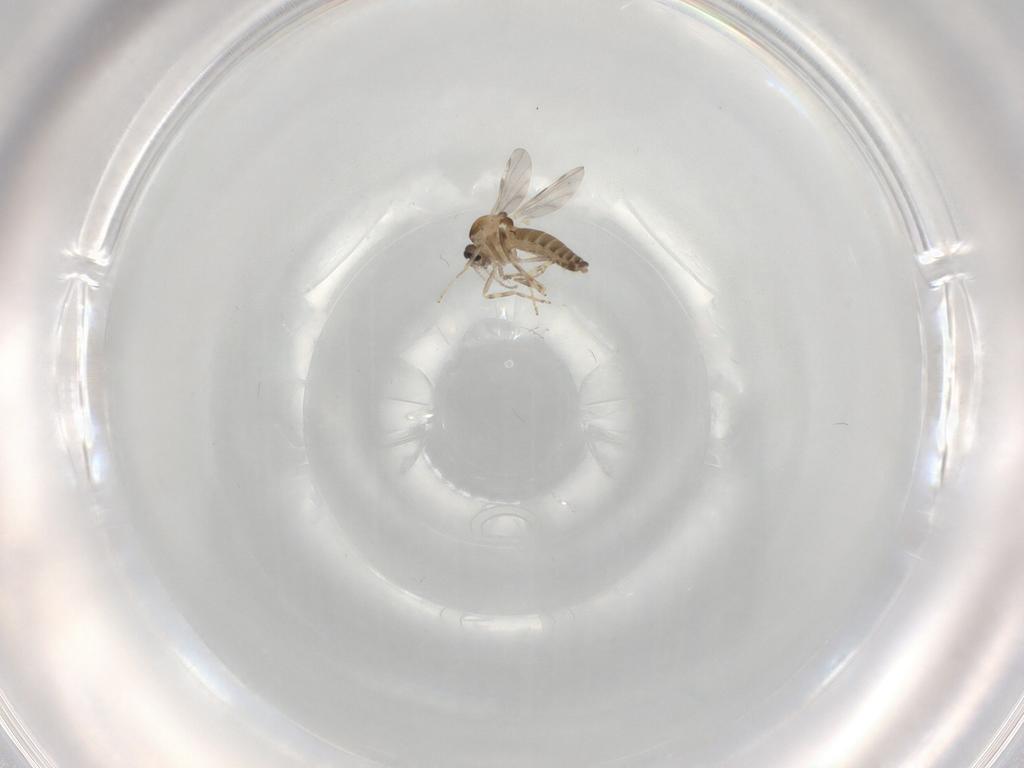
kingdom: Animalia
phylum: Arthropoda
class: Insecta
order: Diptera
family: Ceratopogonidae
